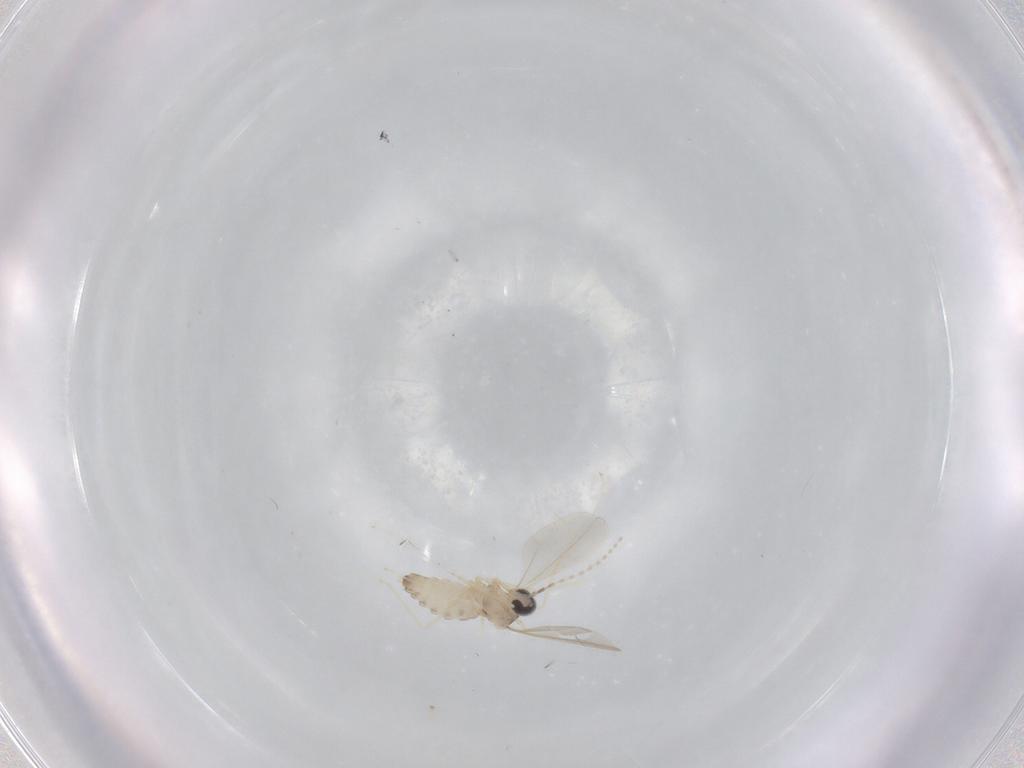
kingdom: Animalia
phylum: Arthropoda
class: Insecta
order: Diptera
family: Cecidomyiidae
